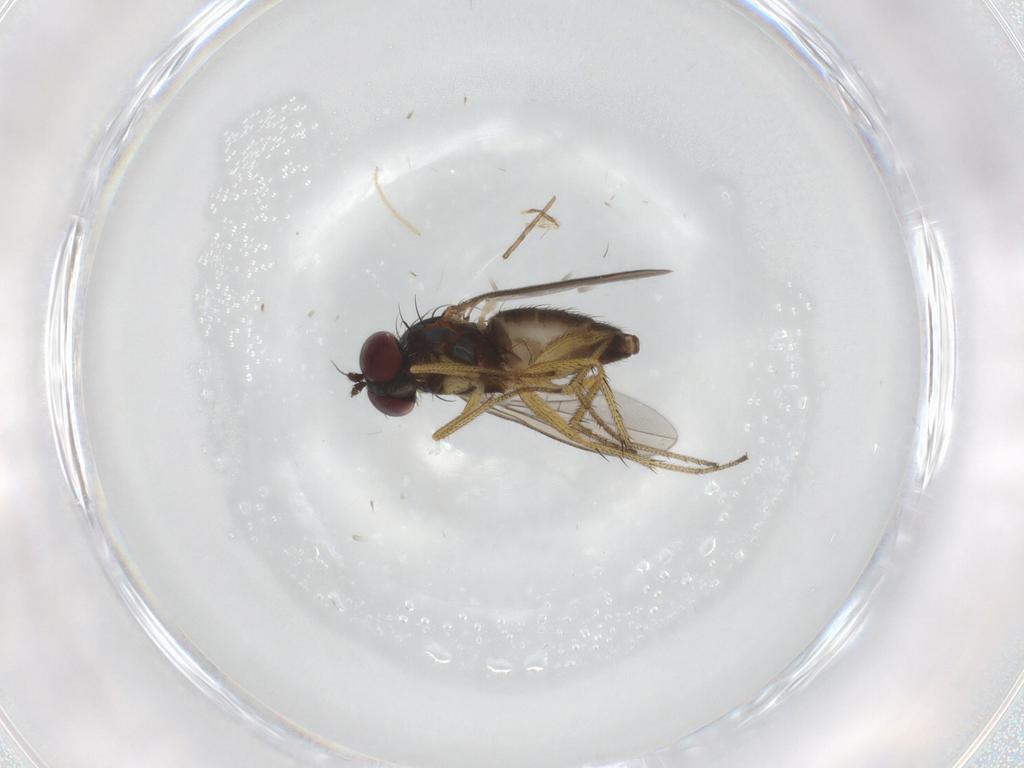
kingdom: Animalia
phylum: Arthropoda
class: Insecta
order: Diptera
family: Dolichopodidae
